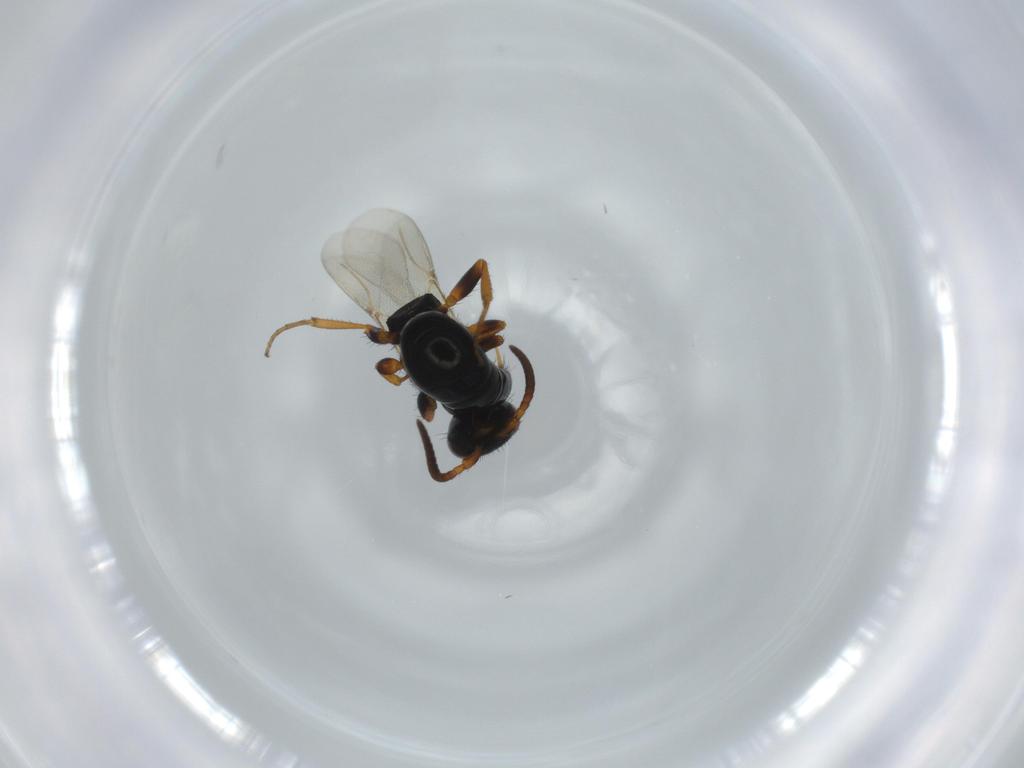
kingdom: Animalia
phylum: Arthropoda
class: Insecta
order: Hymenoptera
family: Bethylidae
